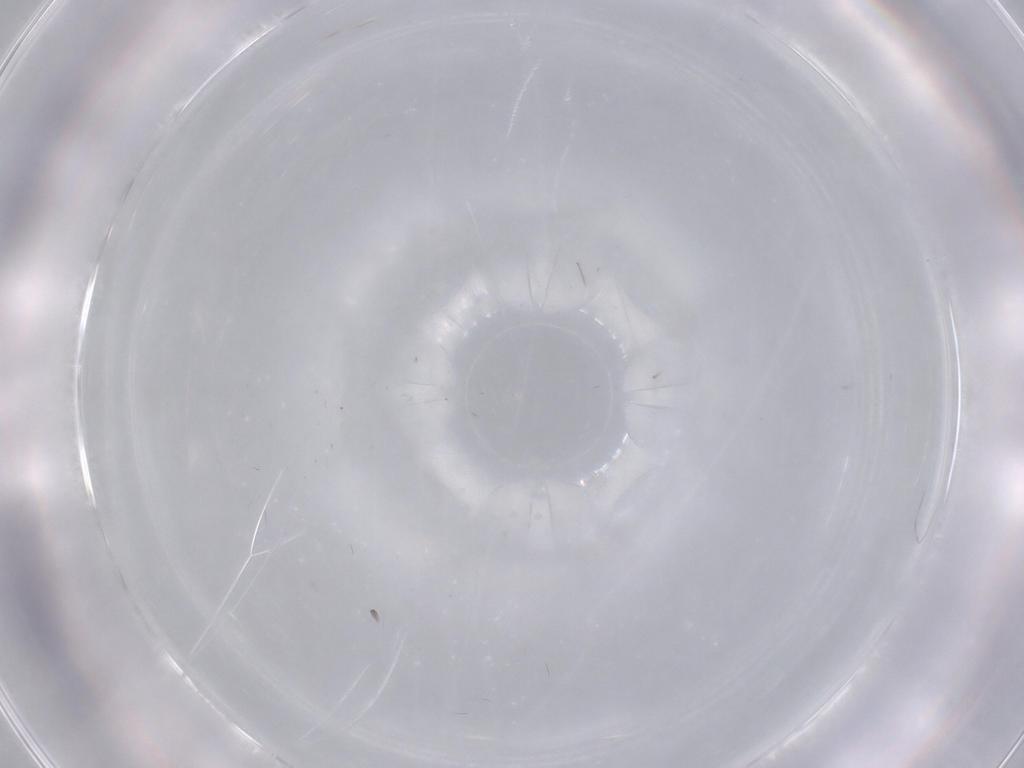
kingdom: Animalia
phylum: Arthropoda
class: Insecta
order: Diptera
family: Cecidomyiidae
